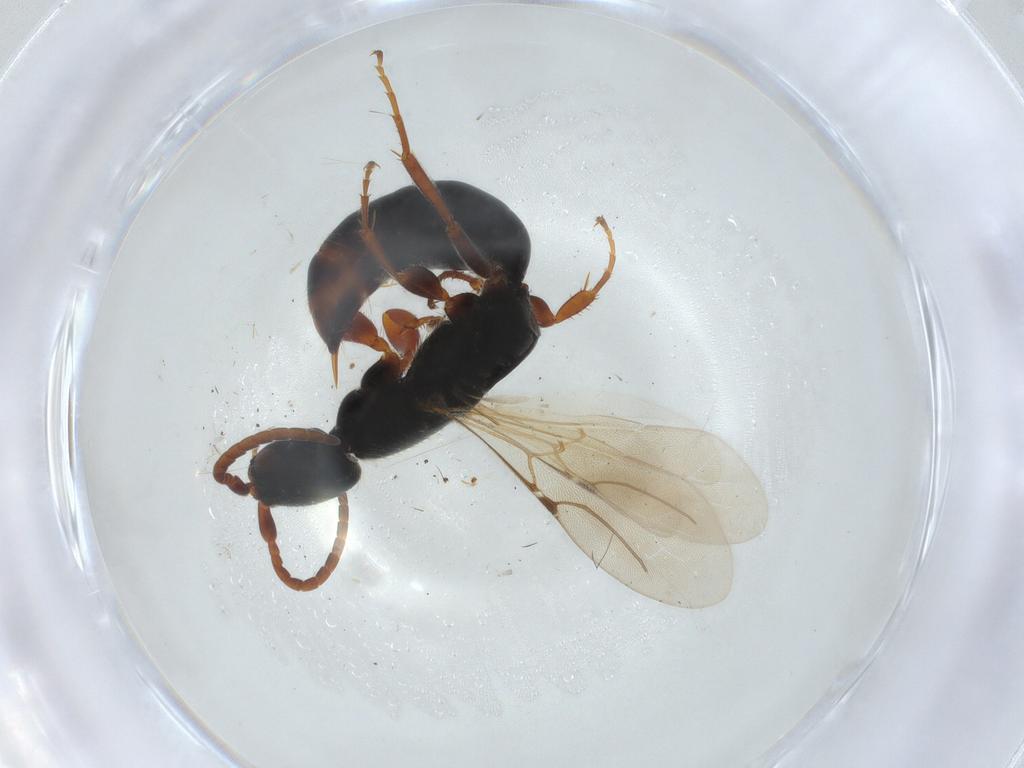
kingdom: Animalia
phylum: Arthropoda
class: Insecta
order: Hymenoptera
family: Bethylidae
